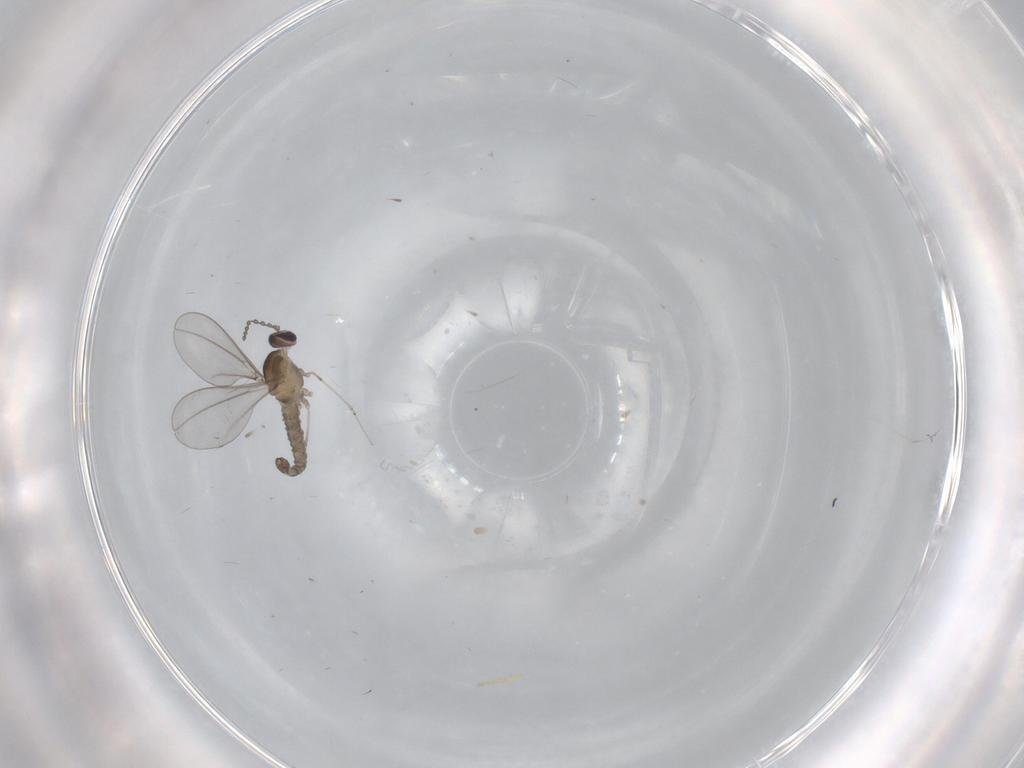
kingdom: Animalia
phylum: Arthropoda
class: Insecta
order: Diptera
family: Cecidomyiidae
